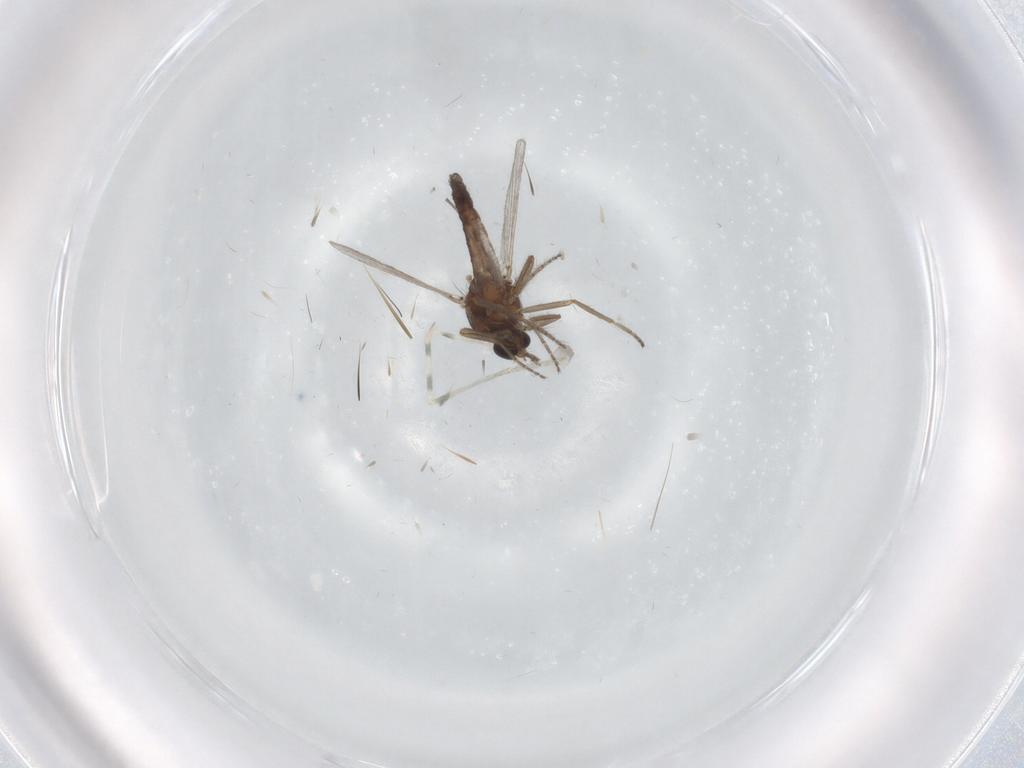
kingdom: Animalia
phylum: Arthropoda
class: Insecta
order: Diptera
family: Ceratopogonidae
